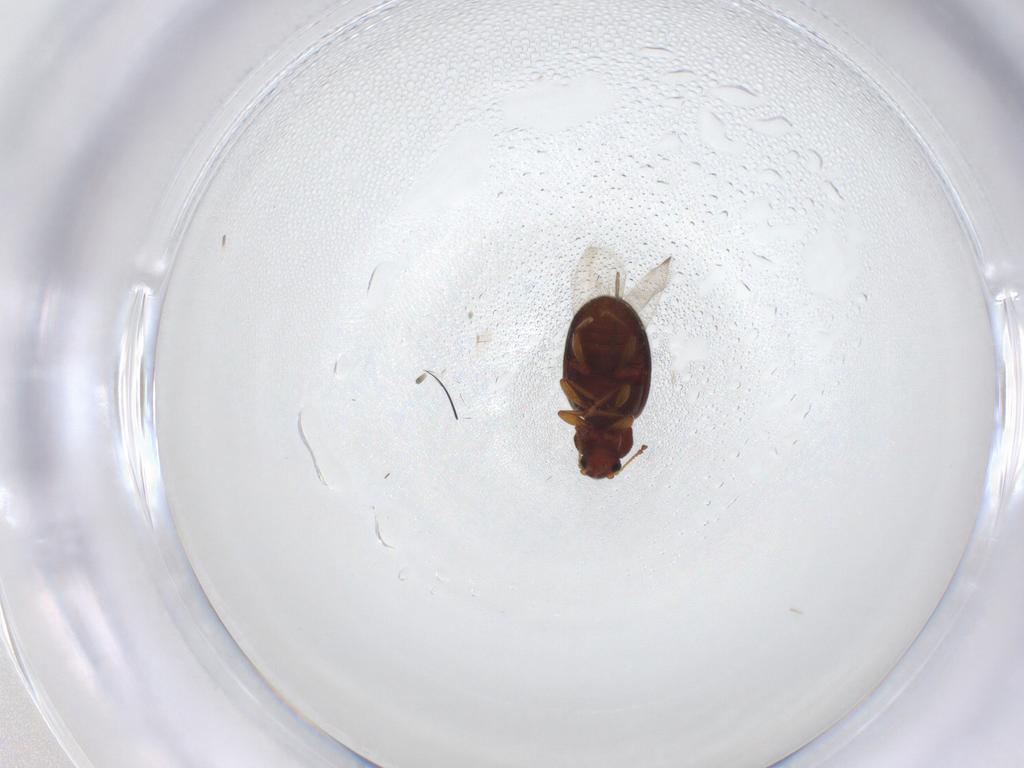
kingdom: Animalia
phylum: Arthropoda
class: Insecta
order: Coleoptera
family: Latridiidae
